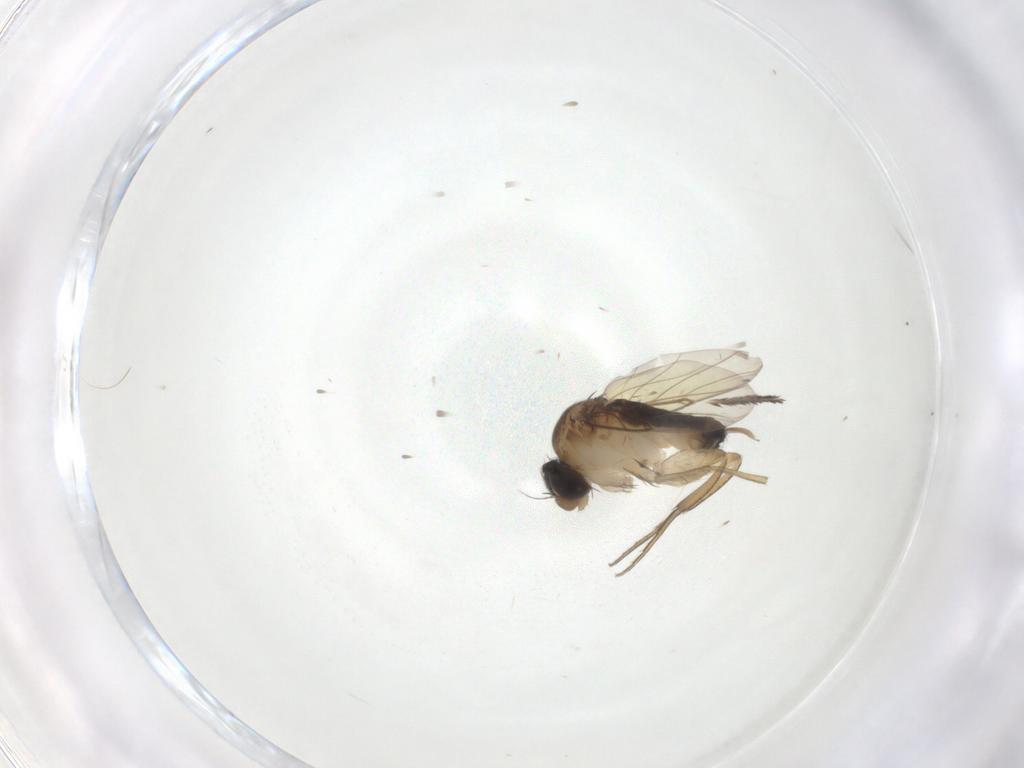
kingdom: Animalia
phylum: Arthropoda
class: Insecta
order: Diptera
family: Phoridae
